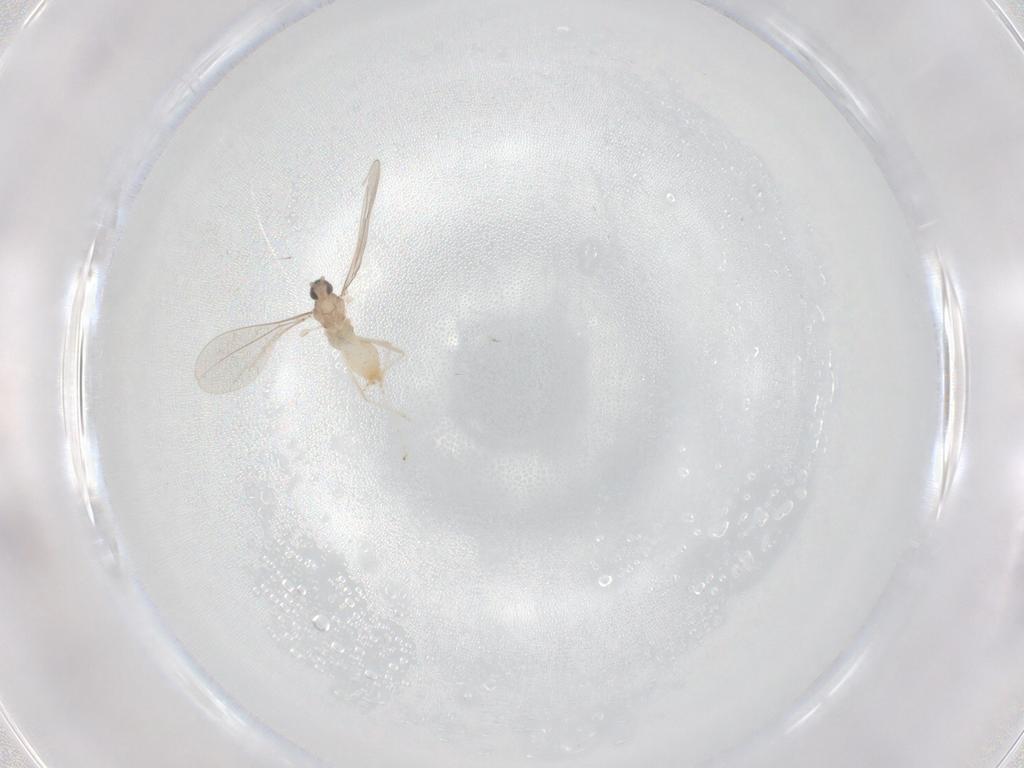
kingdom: Animalia
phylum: Arthropoda
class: Insecta
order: Diptera
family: Cecidomyiidae
